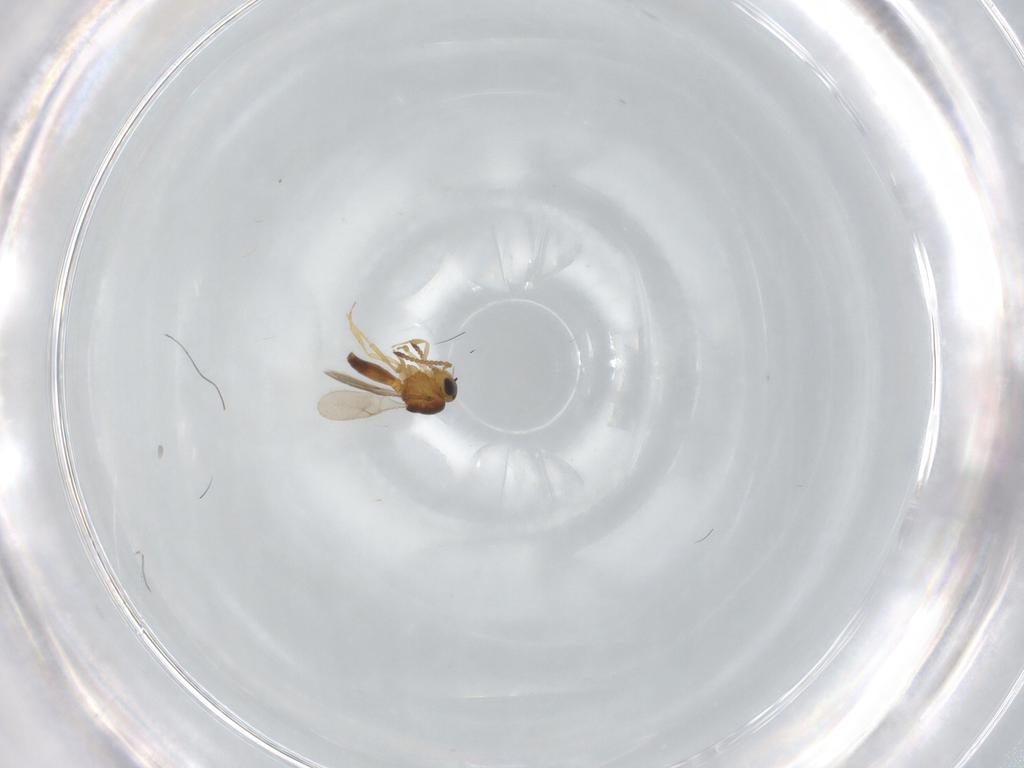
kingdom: Animalia
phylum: Arthropoda
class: Insecta
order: Hymenoptera
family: Scelionidae
